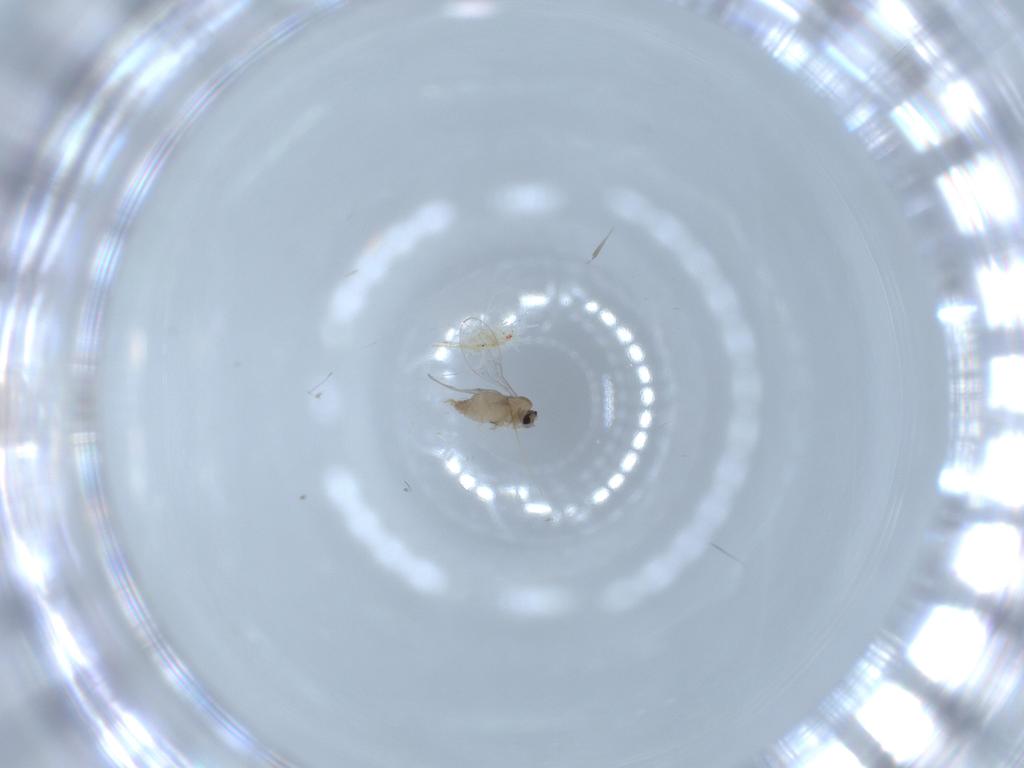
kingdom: Animalia
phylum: Arthropoda
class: Insecta
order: Diptera
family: Cecidomyiidae
